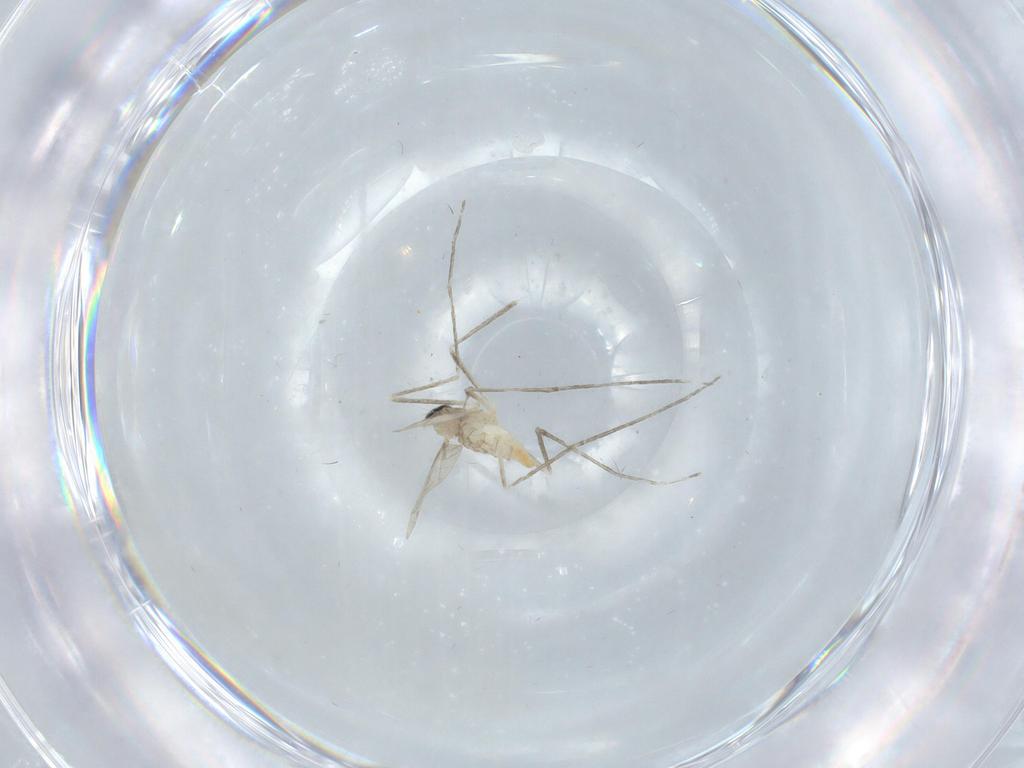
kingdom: Animalia
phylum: Arthropoda
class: Insecta
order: Diptera
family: Cecidomyiidae
